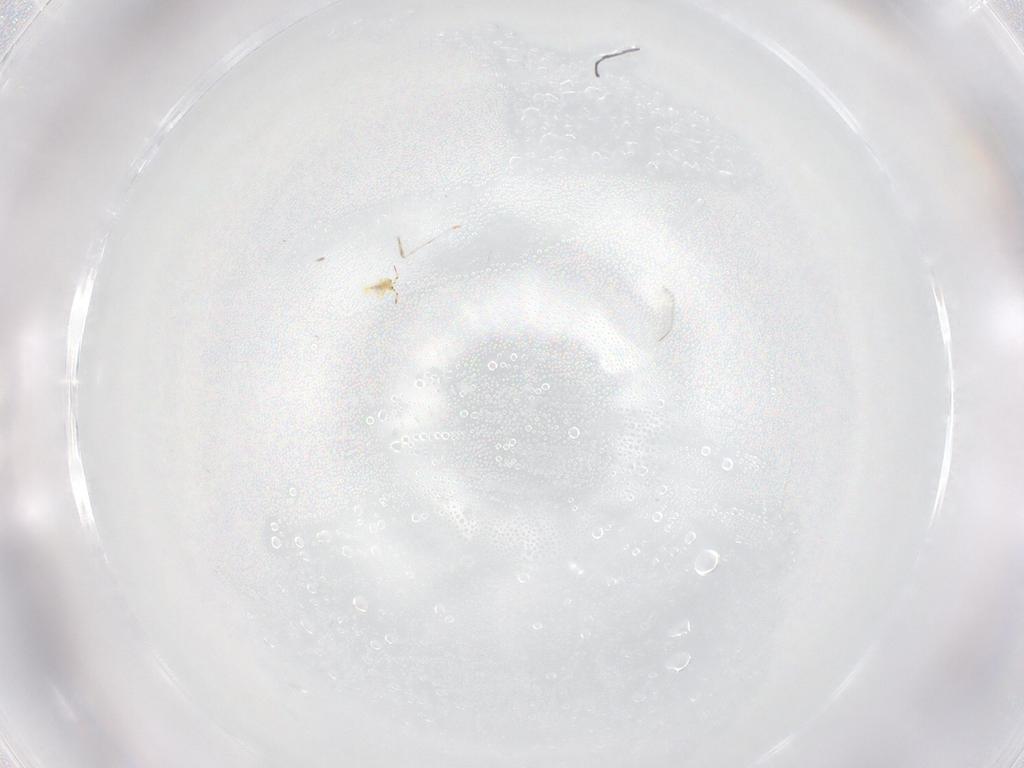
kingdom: Animalia
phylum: Arthropoda
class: Insecta
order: Diptera
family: Chironomidae
